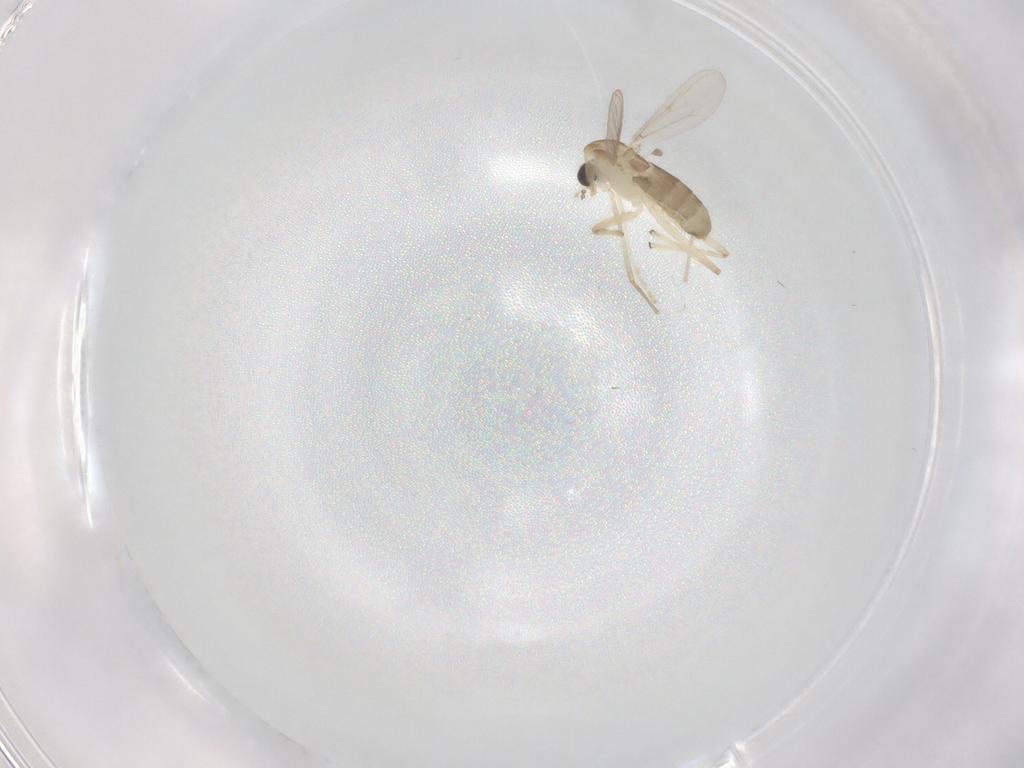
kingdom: Animalia
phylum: Arthropoda
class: Insecta
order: Diptera
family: Chironomidae
